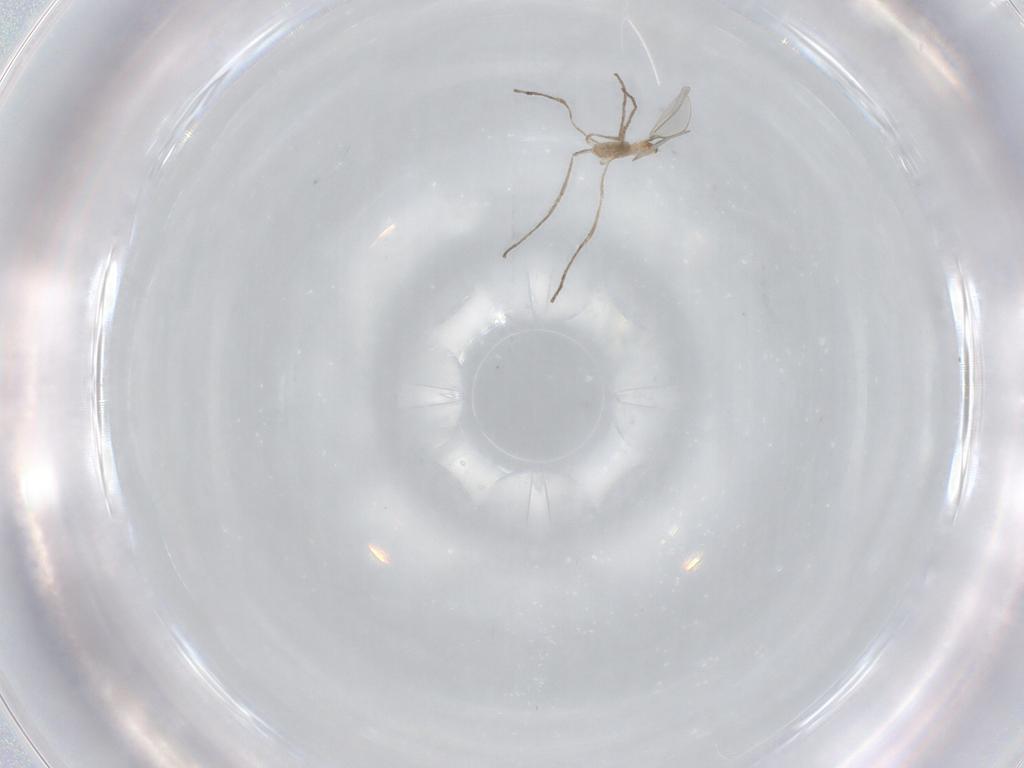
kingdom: Animalia
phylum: Arthropoda
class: Insecta
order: Diptera
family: Cecidomyiidae
